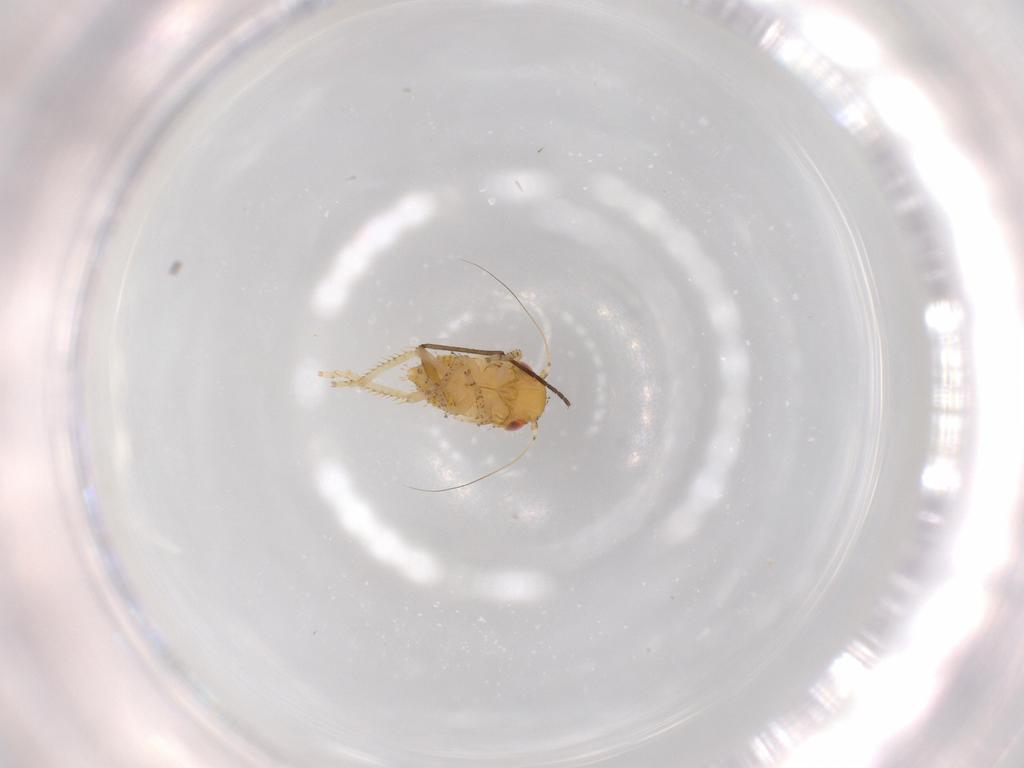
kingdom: Animalia
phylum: Arthropoda
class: Insecta
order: Hemiptera
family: Cicadellidae
